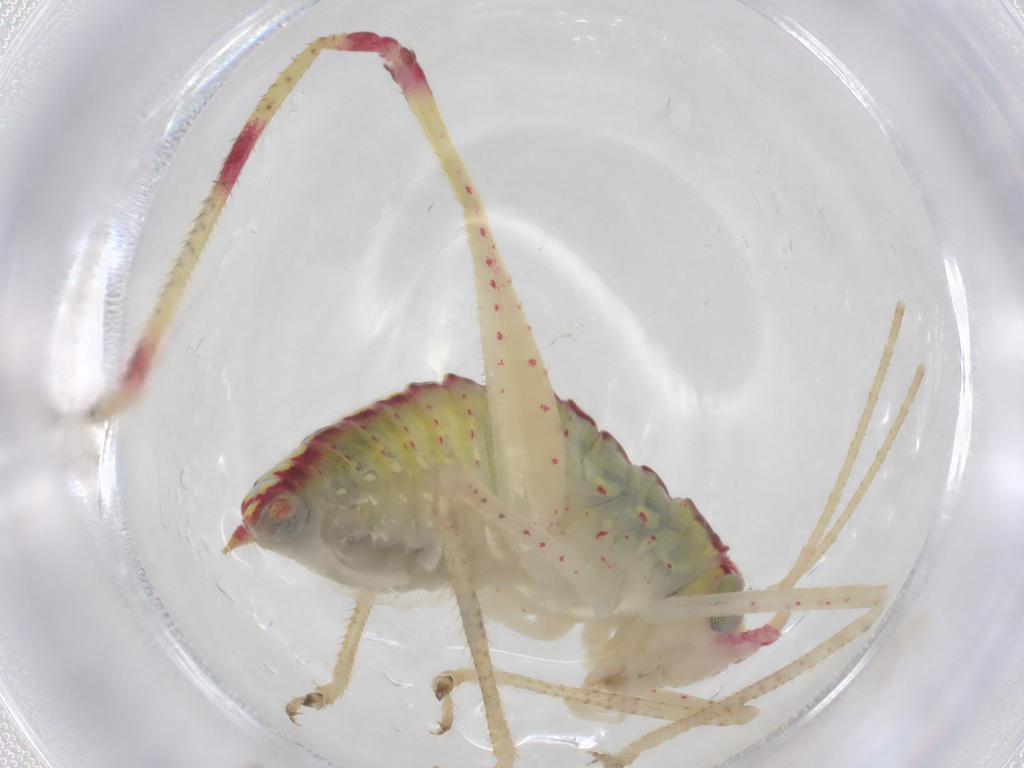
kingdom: Animalia
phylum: Arthropoda
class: Insecta
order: Orthoptera
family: Tettigoniidae
